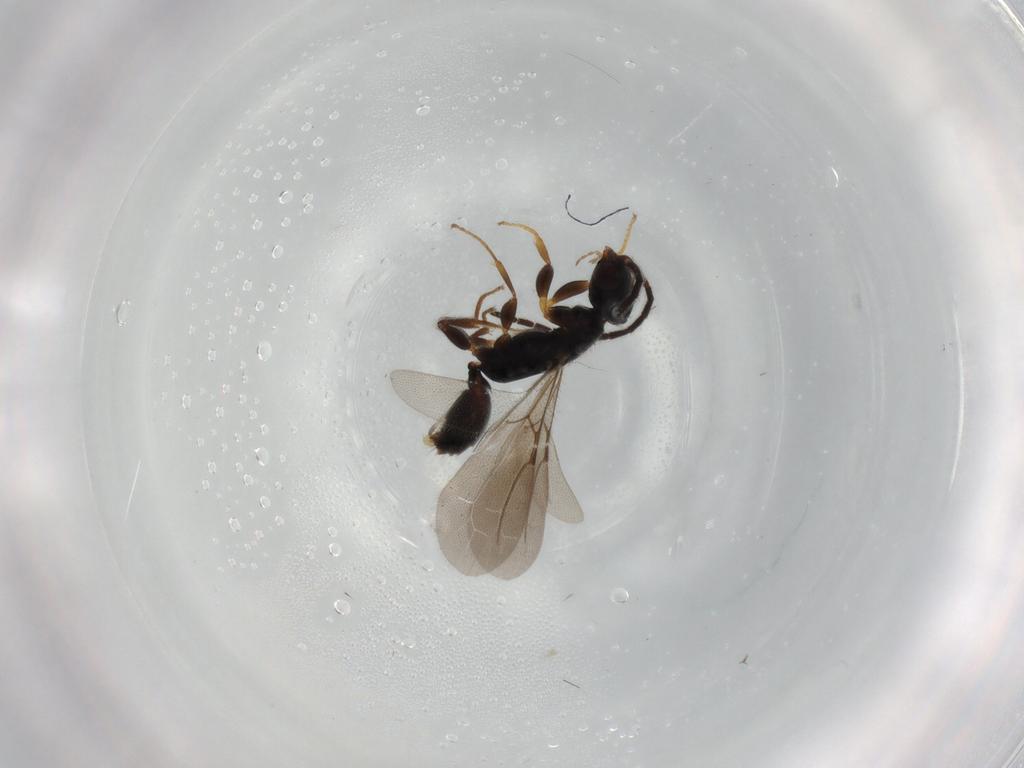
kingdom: Animalia
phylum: Arthropoda
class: Insecta
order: Hymenoptera
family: Bethylidae
